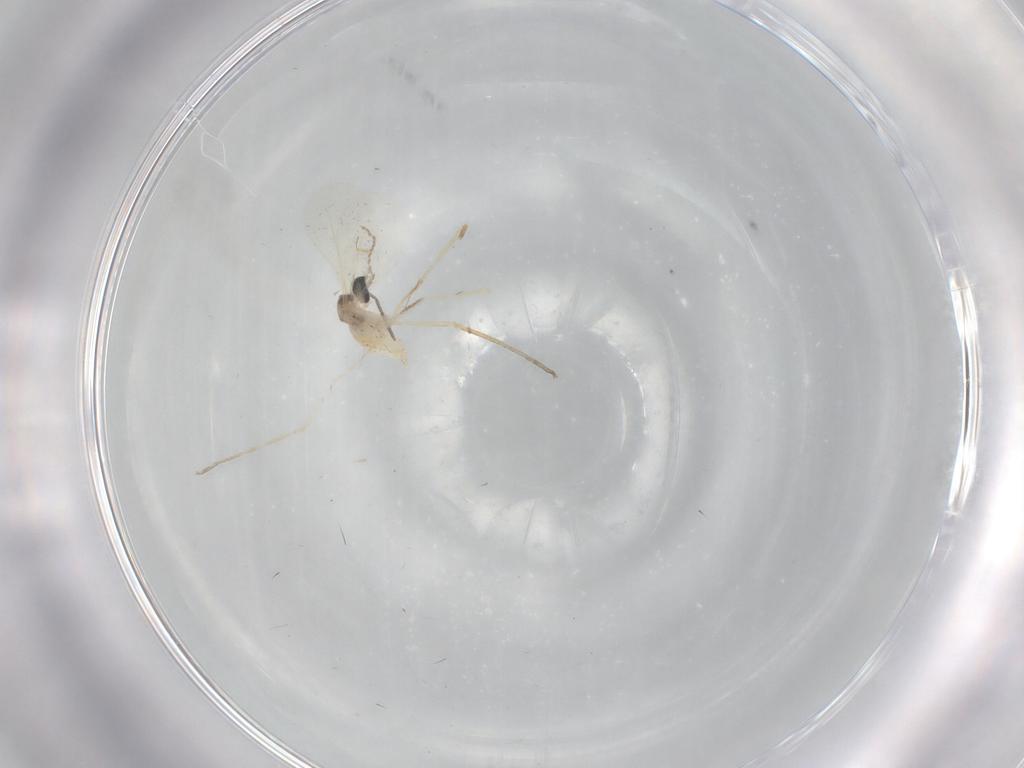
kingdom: Animalia
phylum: Arthropoda
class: Insecta
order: Diptera
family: Cecidomyiidae
